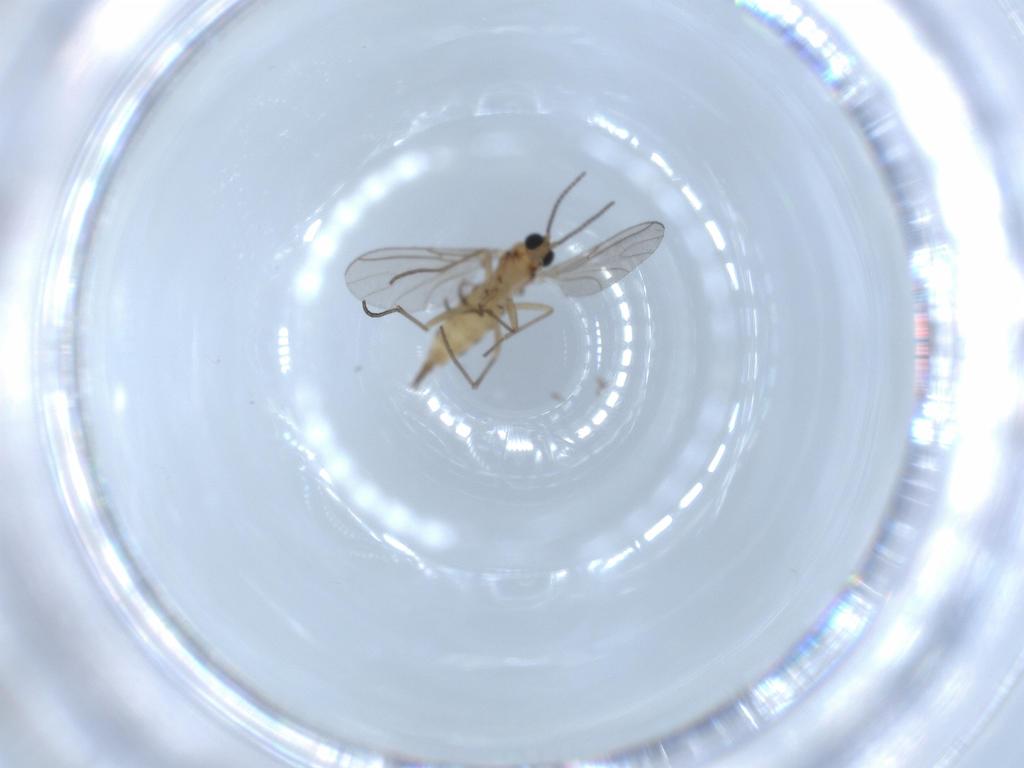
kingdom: Animalia
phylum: Arthropoda
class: Insecta
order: Diptera
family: Sciaridae
